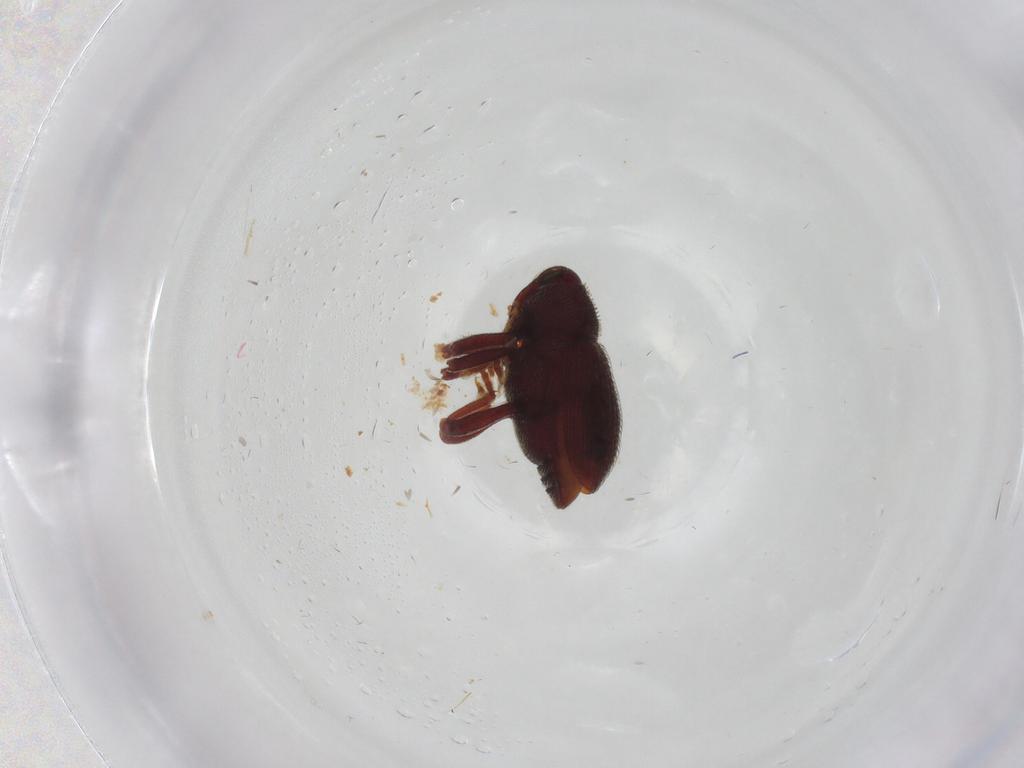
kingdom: Animalia
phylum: Arthropoda
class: Insecta
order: Coleoptera
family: Curculionidae
